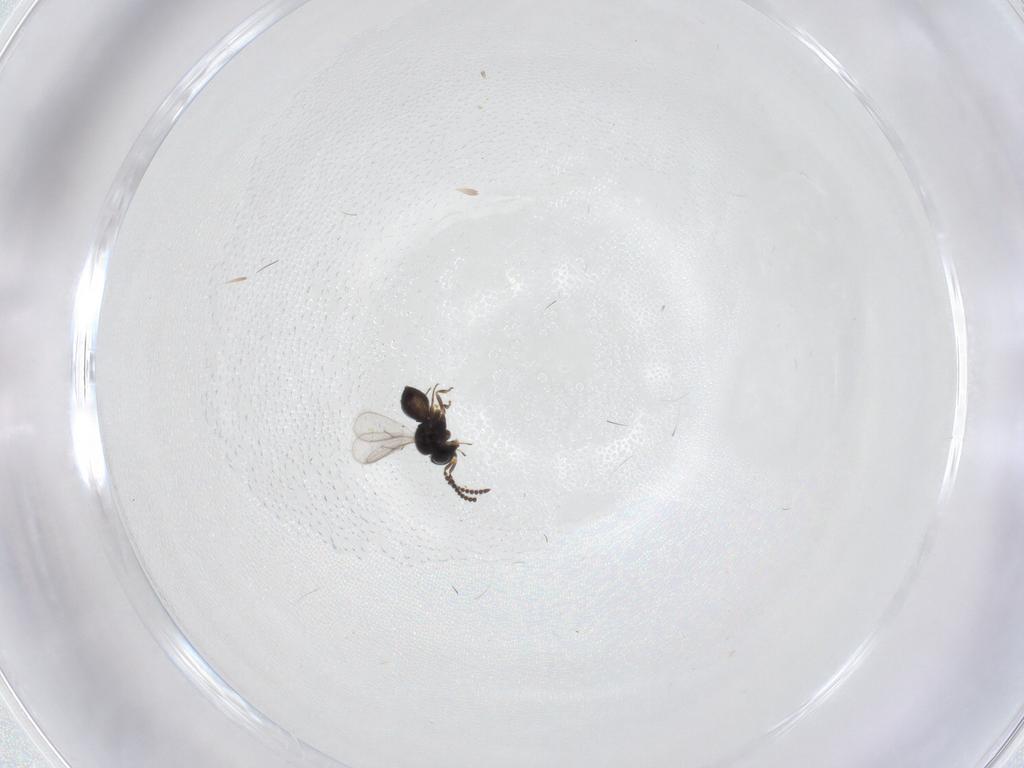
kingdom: Animalia
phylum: Arthropoda
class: Insecta
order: Hymenoptera
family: Scelionidae
